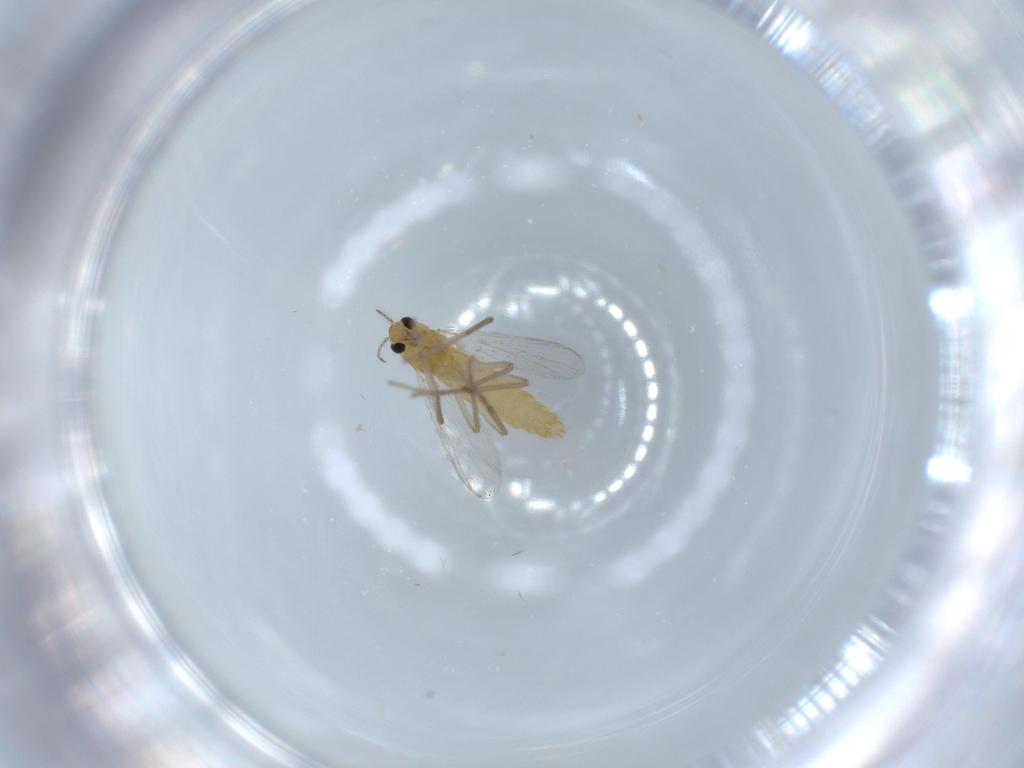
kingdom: Animalia
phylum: Arthropoda
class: Insecta
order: Diptera
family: Chironomidae
